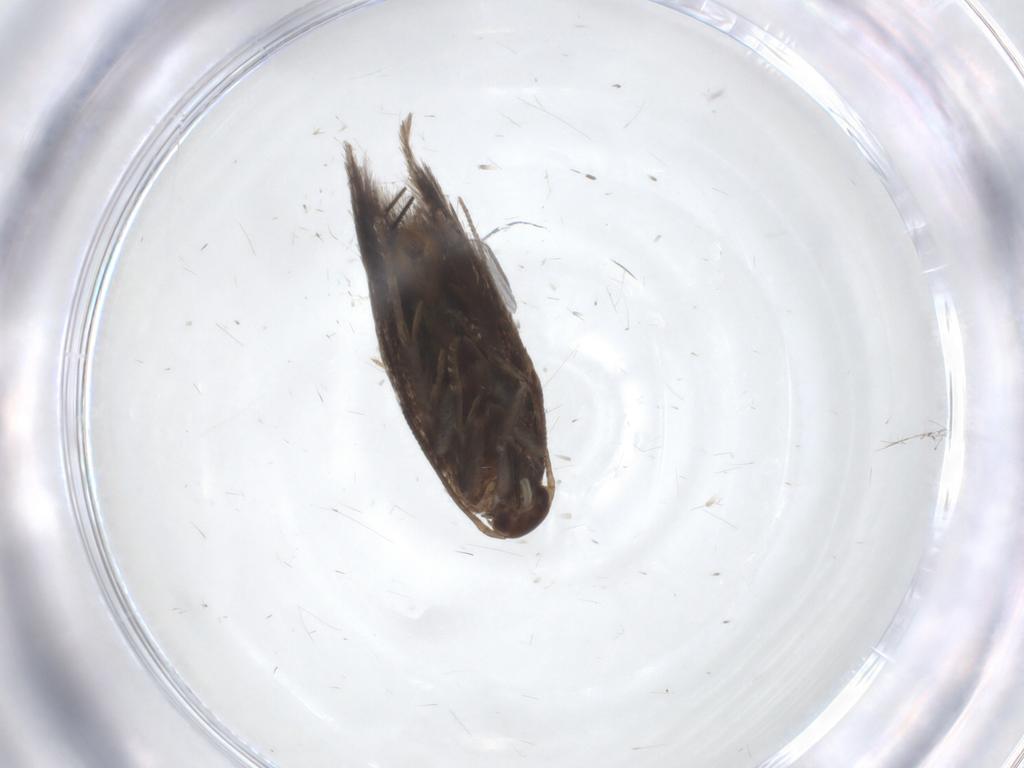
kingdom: Animalia
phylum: Arthropoda
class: Insecta
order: Lepidoptera
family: Elachistidae
